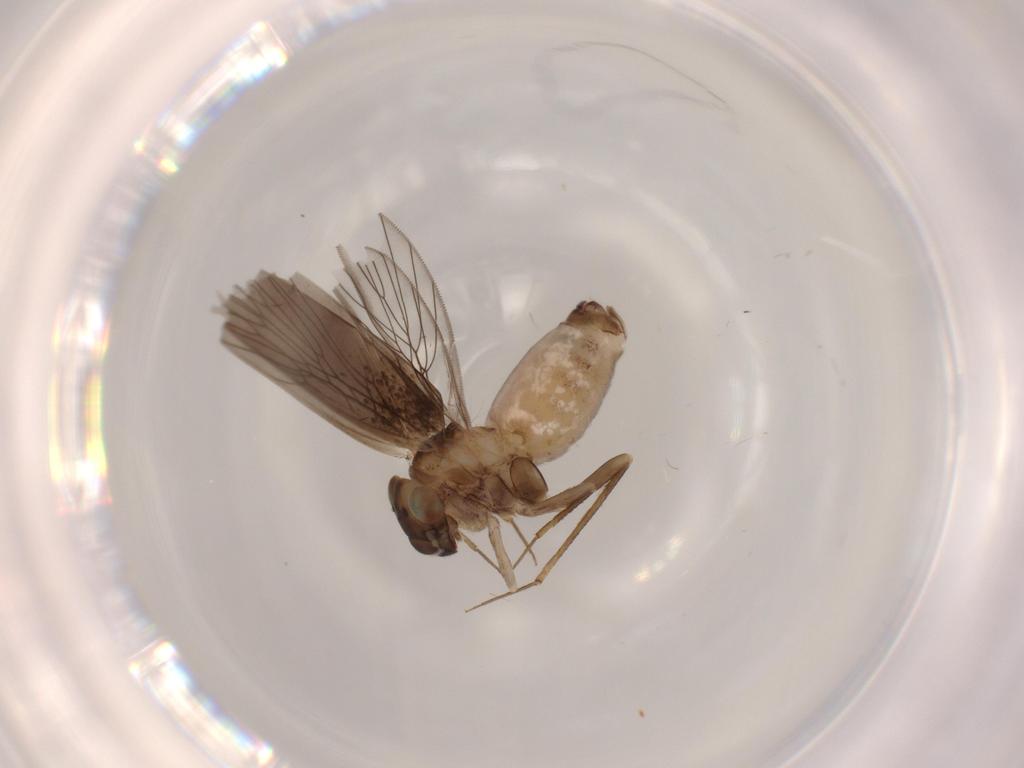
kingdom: Animalia
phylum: Arthropoda
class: Insecta
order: Psocodea
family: Lepidopsocidae
